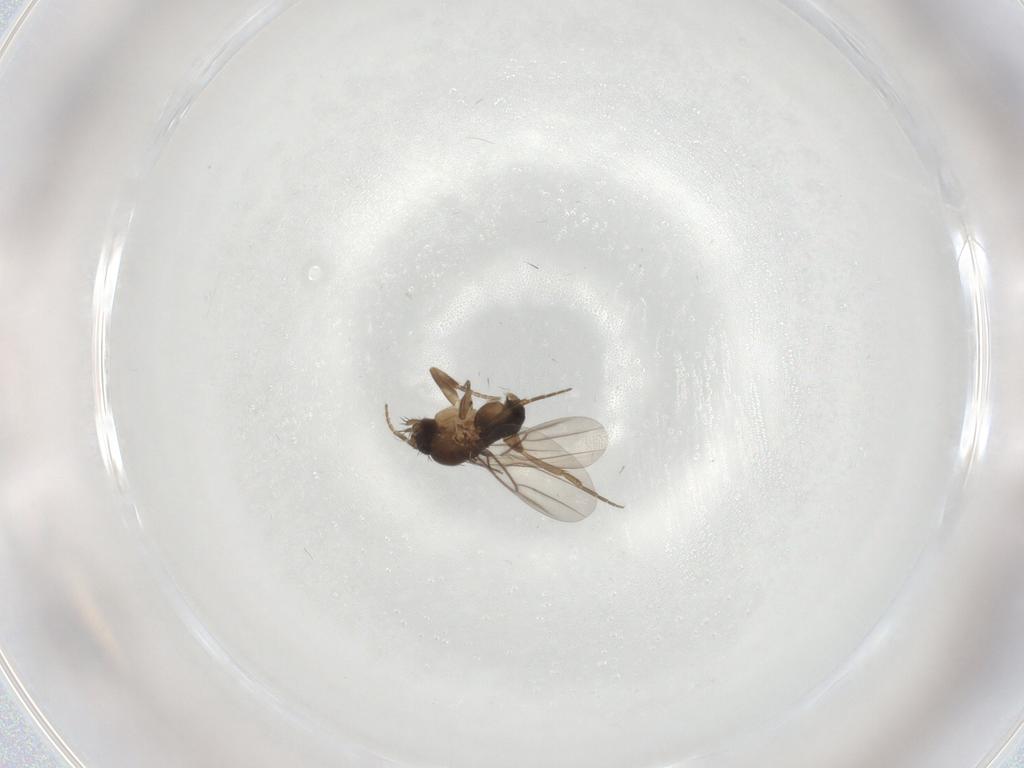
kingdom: Animalia
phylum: Arthropoda
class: Insecta
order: Diptera
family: Phoridae
